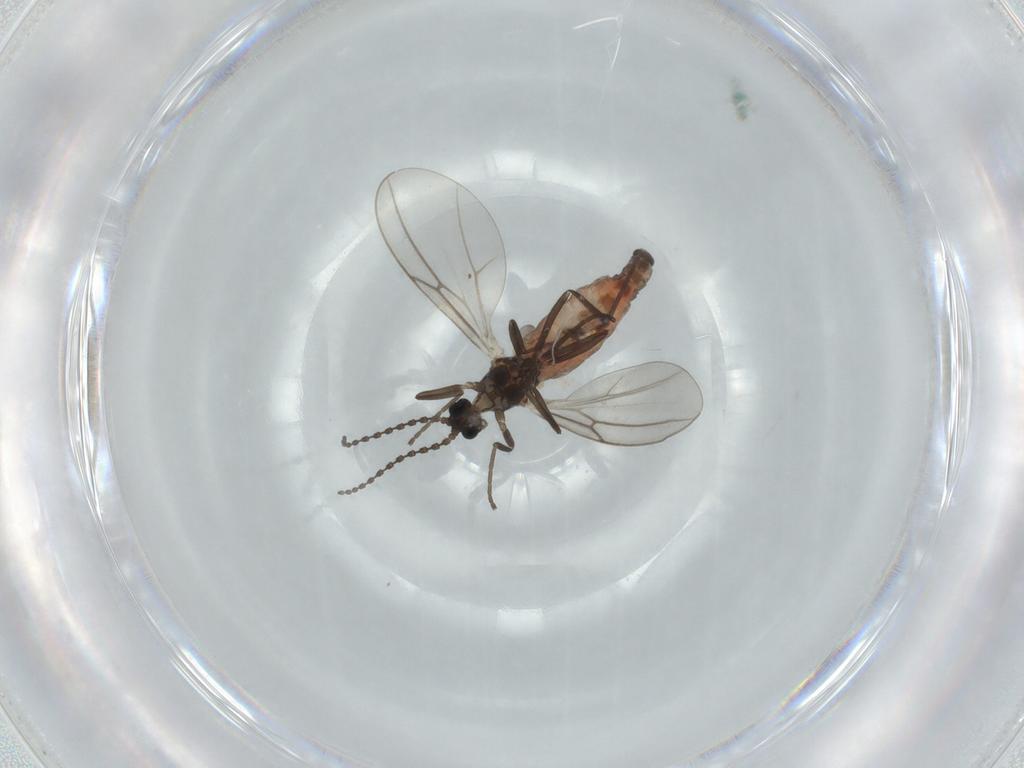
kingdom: Animalia
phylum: Arthropoda
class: Insecta
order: Diptera
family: Cecidomyiidae
